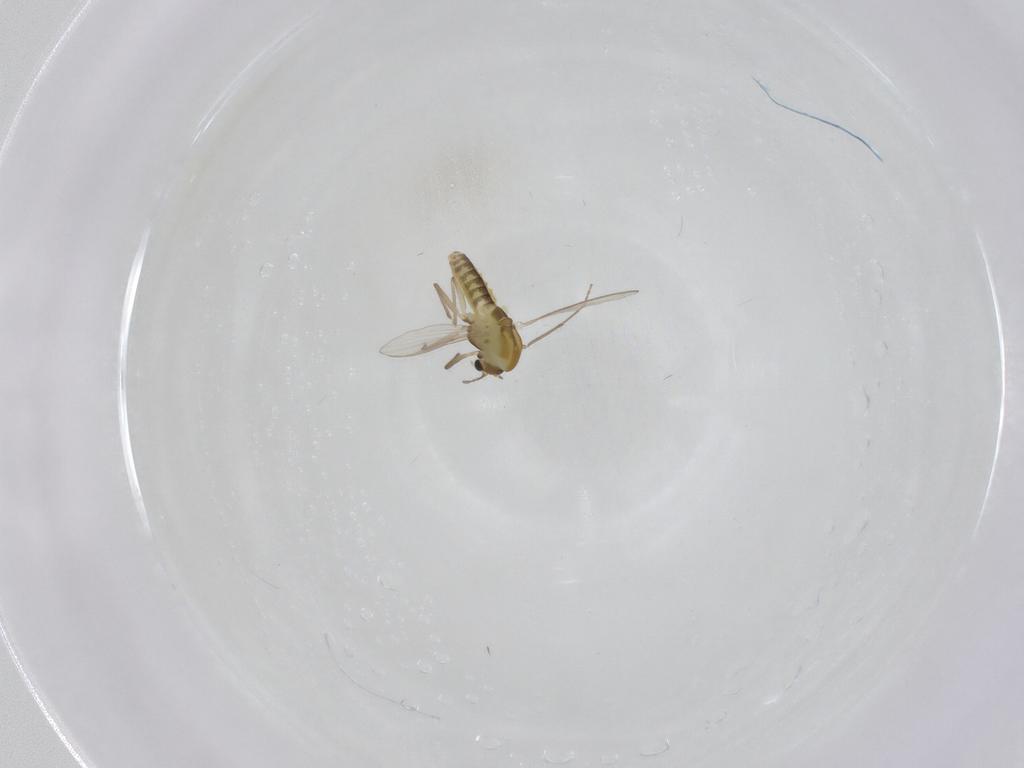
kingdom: Animalia
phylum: Arthropoda
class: Insecta
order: Diptera
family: Chironomidae
